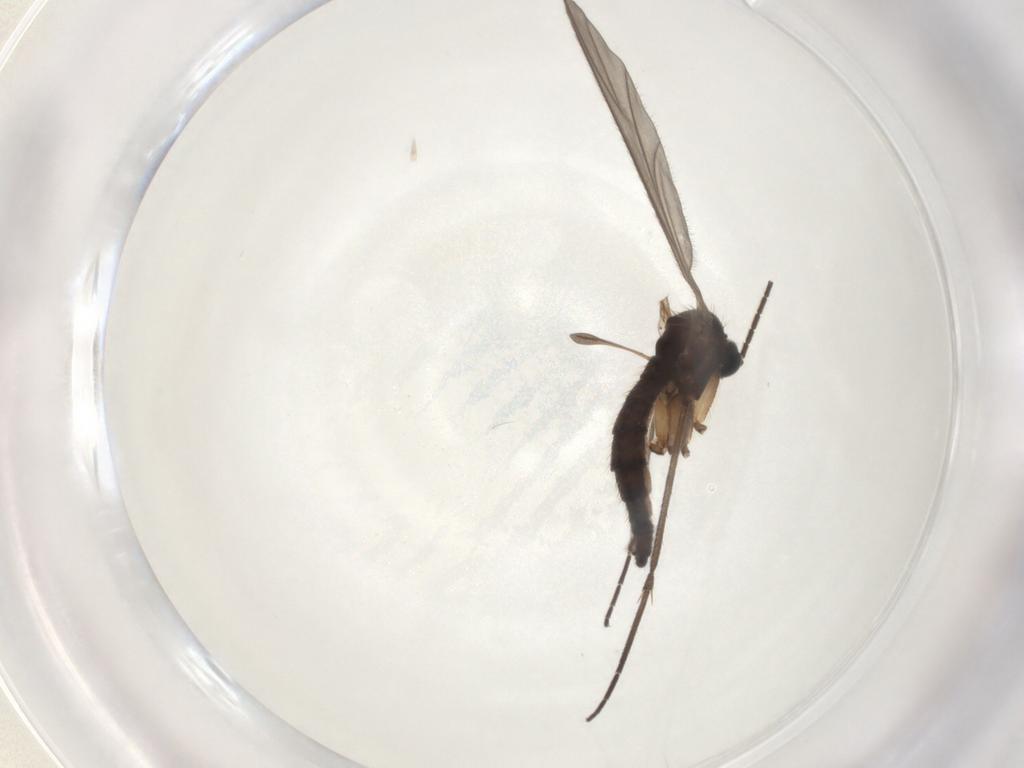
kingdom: Animalia
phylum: Arthropoda
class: Insecta
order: Diptera
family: Sciaridae
